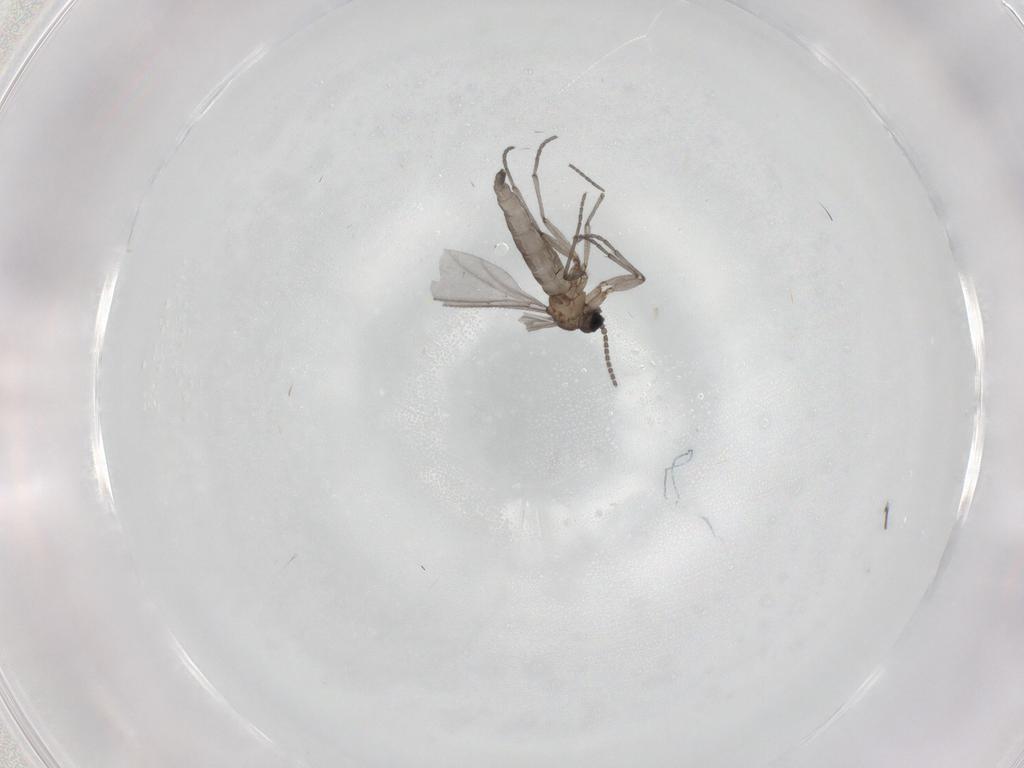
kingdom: Animalia
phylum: Arthropoda
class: Insecta
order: Diptera
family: Sciaridae
